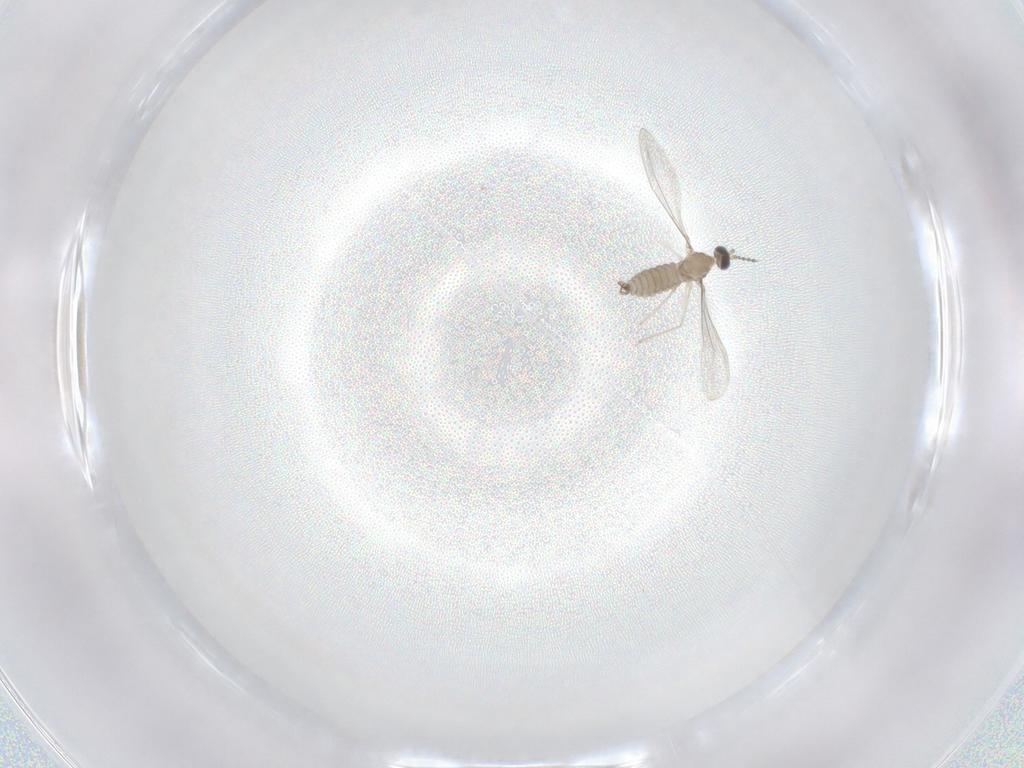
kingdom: Animalia
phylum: Arthropoda
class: Insecta
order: Diptera
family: Cecidomyiidae
